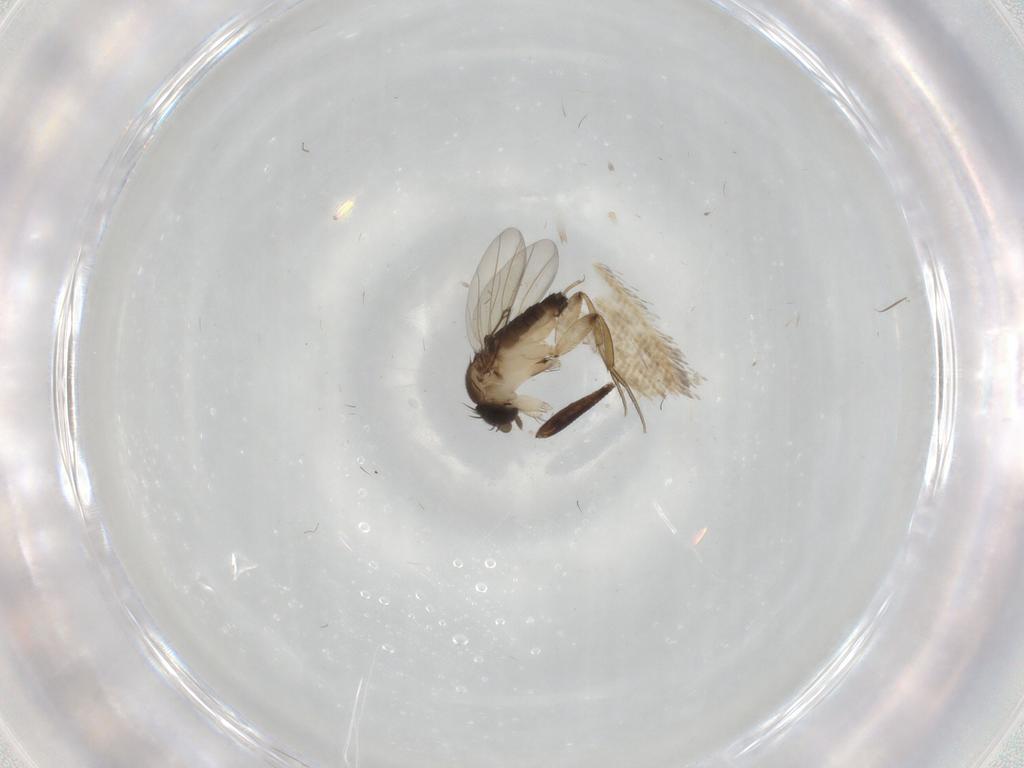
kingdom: Animalia
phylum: Arthropoda
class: Insecta
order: Diptera
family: Phoridae
